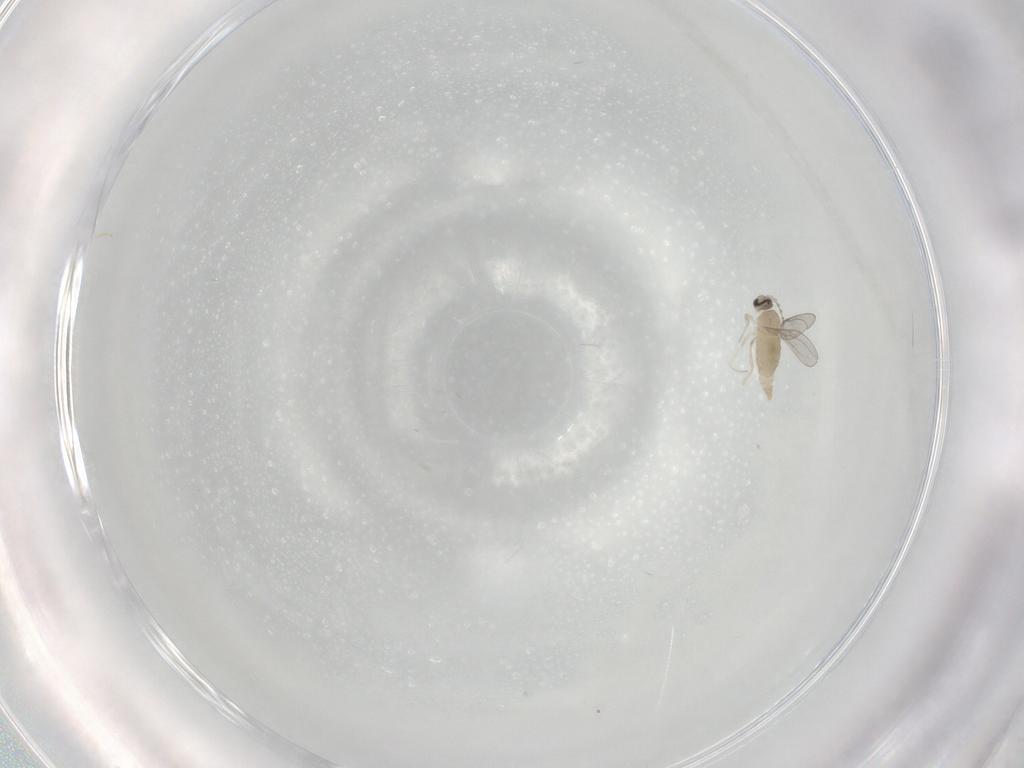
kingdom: Animalia
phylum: Arthropoda
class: Insecta
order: Diptera
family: Cecidomyiidae
